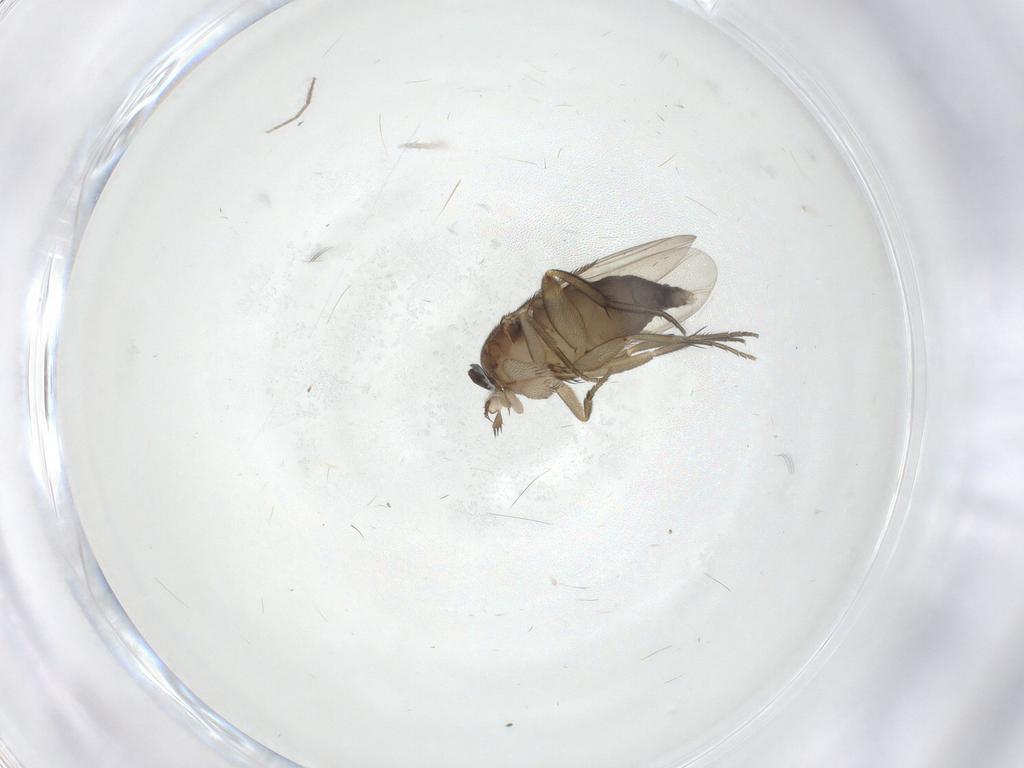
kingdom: Animalia
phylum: Arthropoda
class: Insecta
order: Diptera
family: Phoridae
